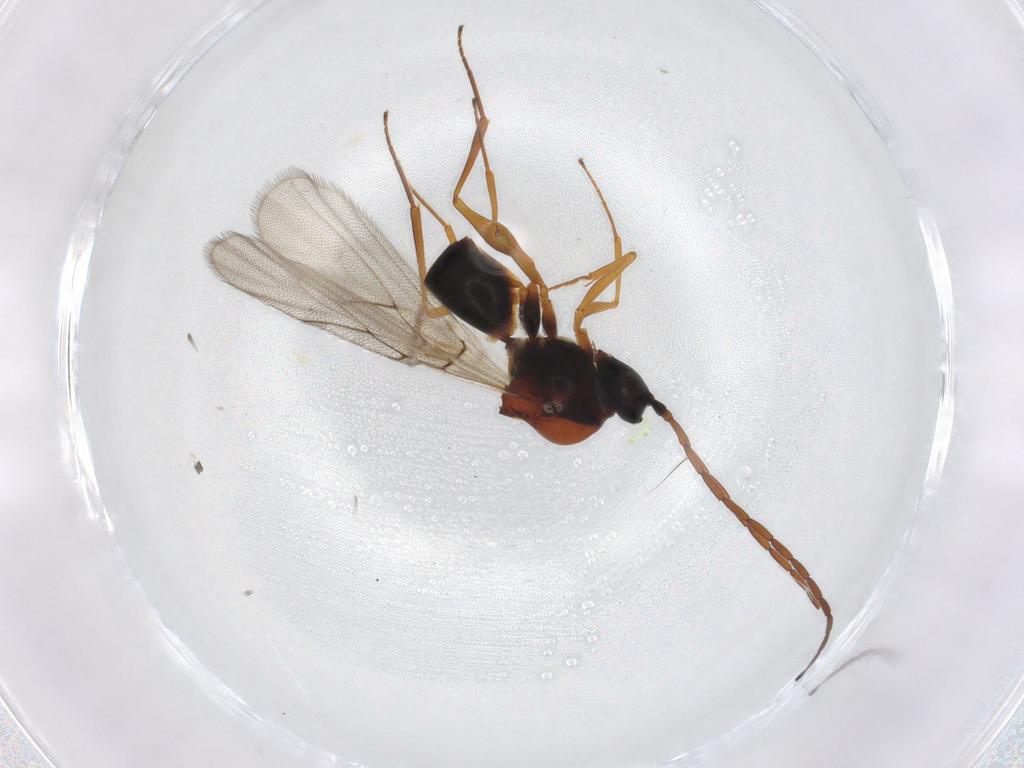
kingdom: Animalia
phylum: Arthropoda
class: Insecta
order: Hymenoptera
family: Figitidae
